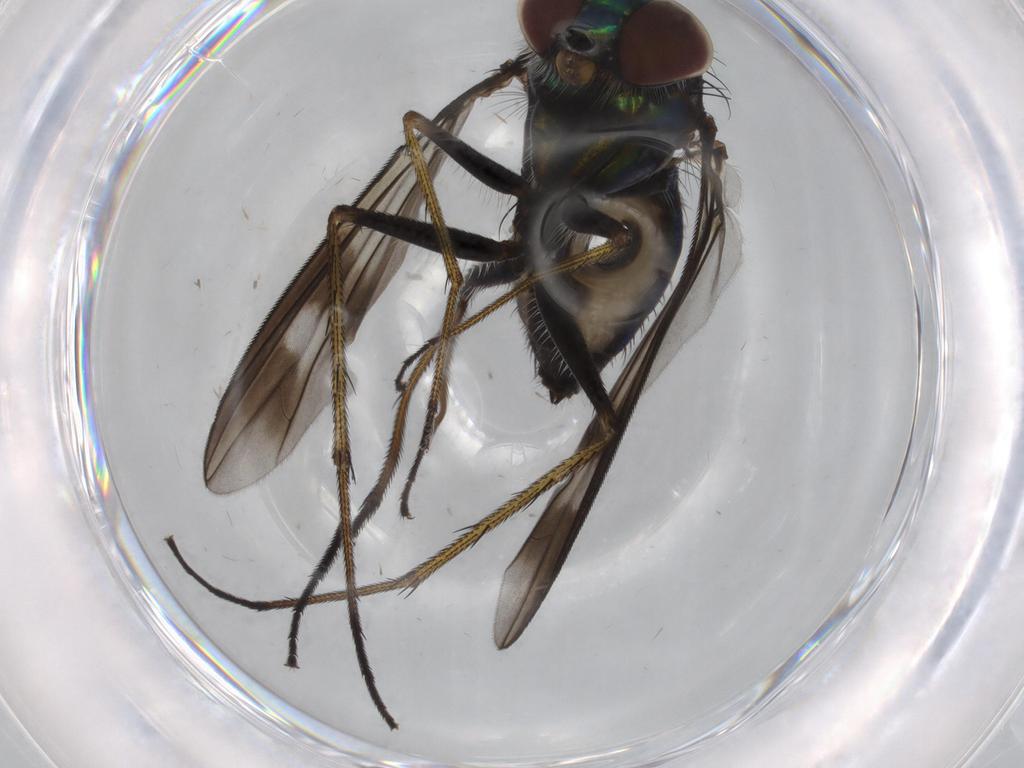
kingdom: Animalia
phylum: Arthropoda
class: Insecta
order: Diptera
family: Dolichopodidae
